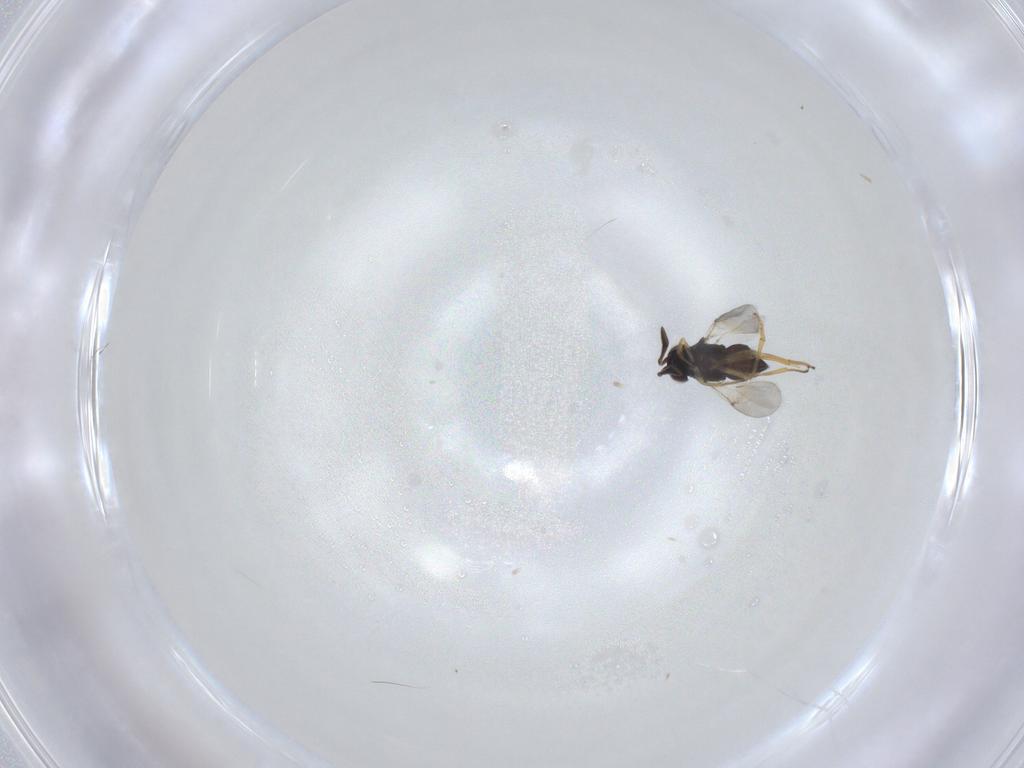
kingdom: Animalia
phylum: Arthropoda
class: Insecta
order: Hymenoptera
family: Encyrtidae
